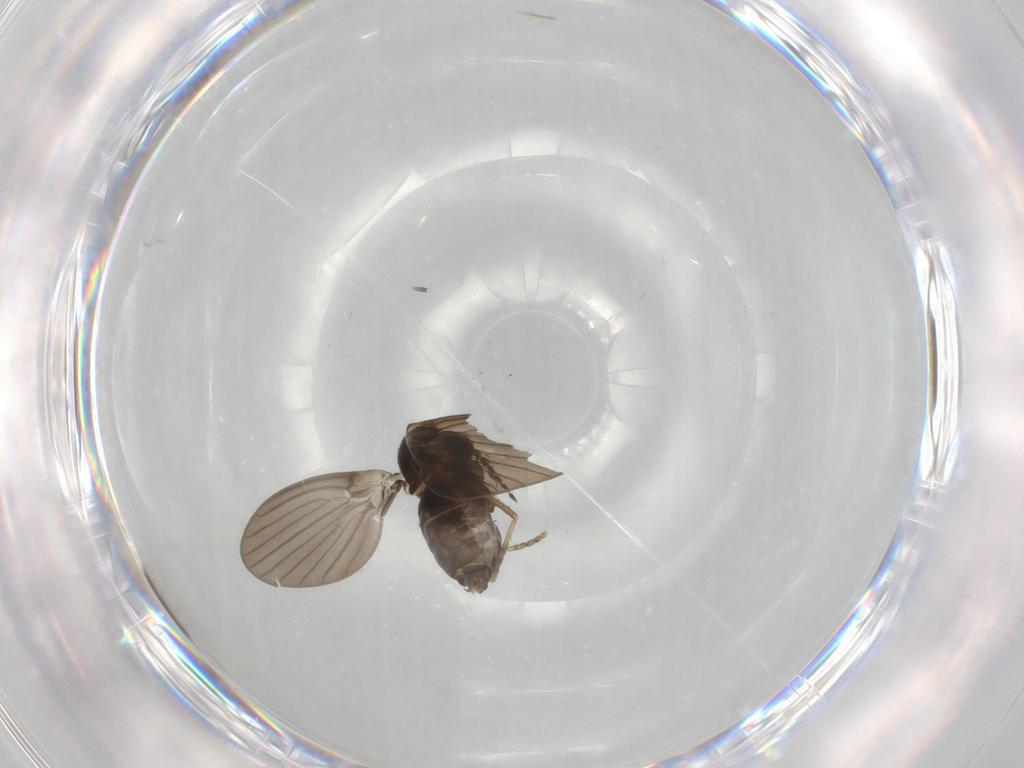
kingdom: Animalia
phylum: Arthropoda
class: Insecta
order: Diptera
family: Psychodidae
